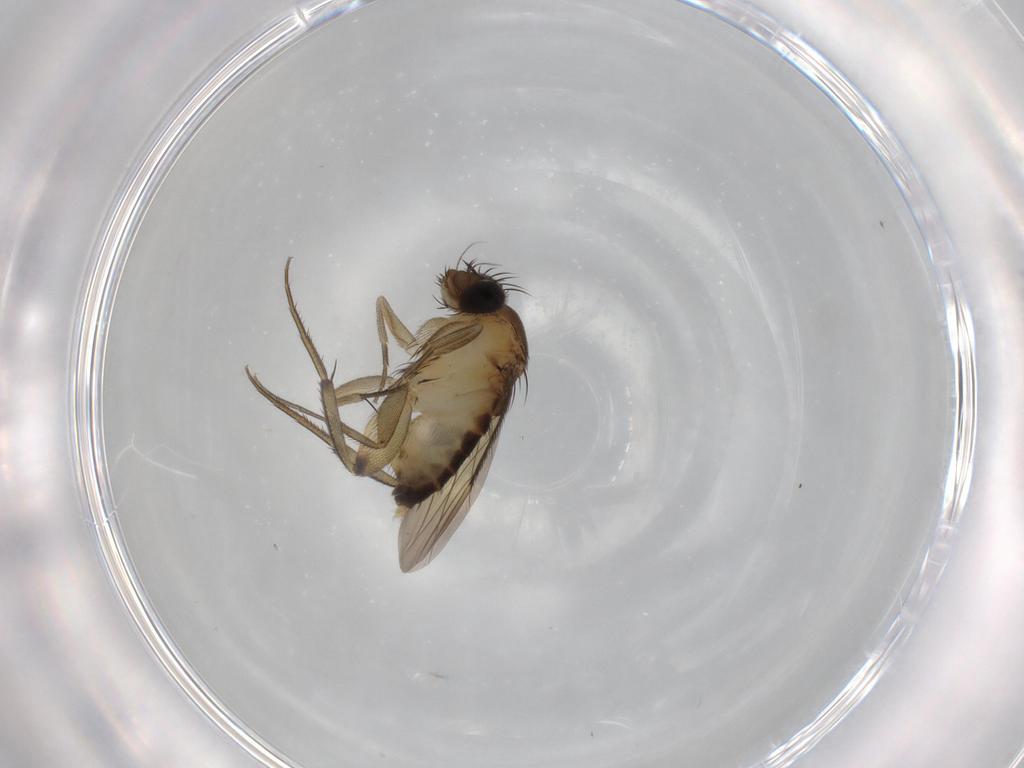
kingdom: Animalia
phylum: Arthropoda
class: Insecta
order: Diptera
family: Phoridae
